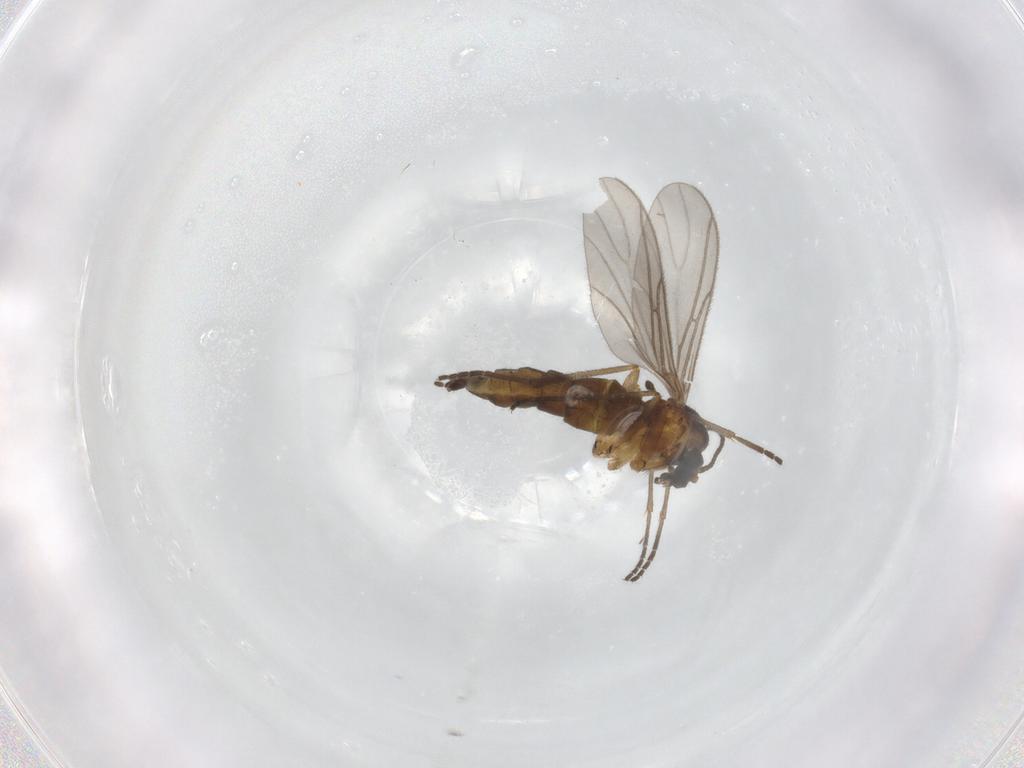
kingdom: Animalia
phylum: Arthropoda
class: Insecta
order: Diptera
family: Sciaridae
